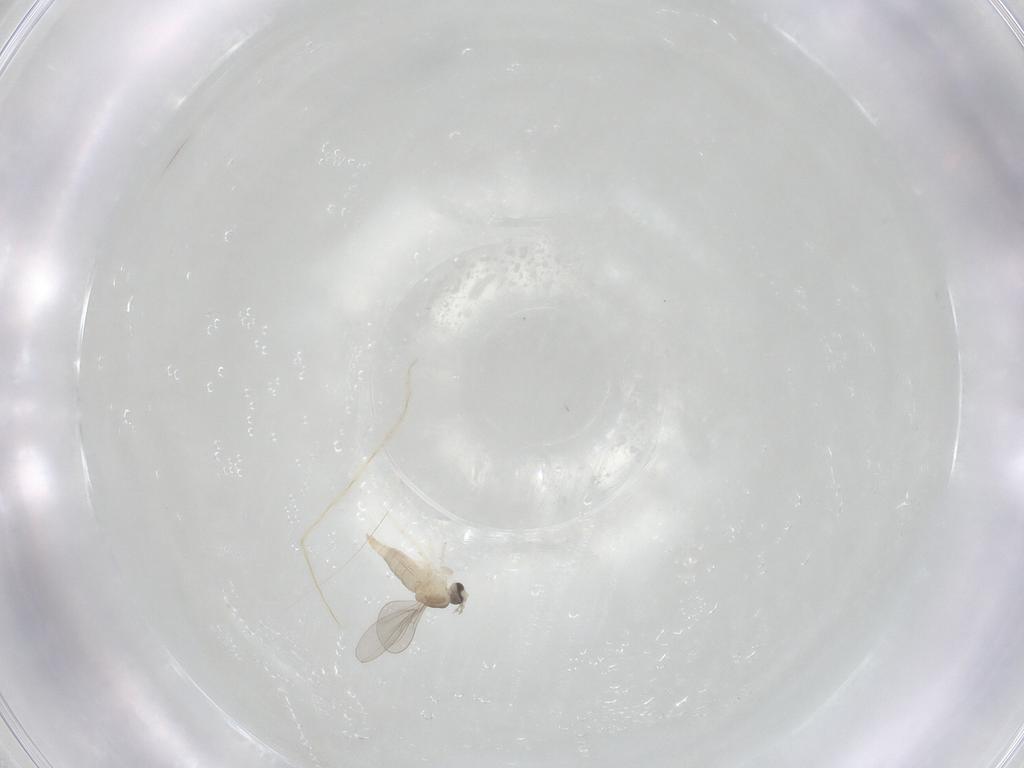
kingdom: Animalia
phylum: Arthropoda
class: Insecta
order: Diptera
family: Cecidomyiidae
